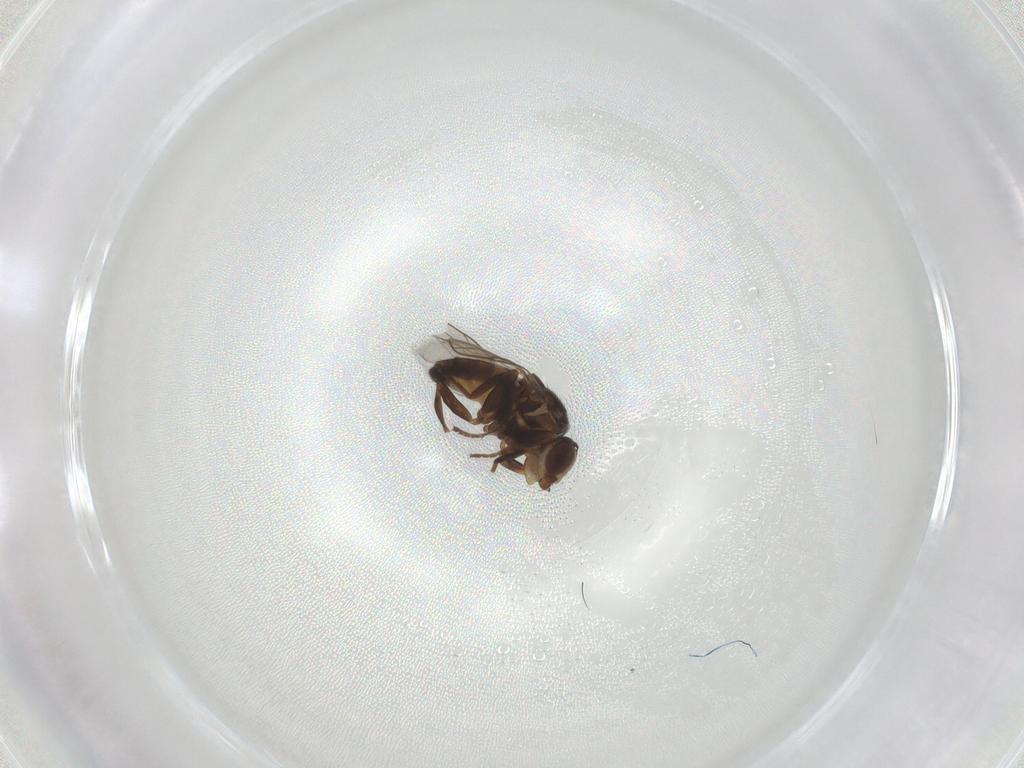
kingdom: Animalia
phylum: Arthropoda
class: Insecta
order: Diptera
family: Chloropidae
